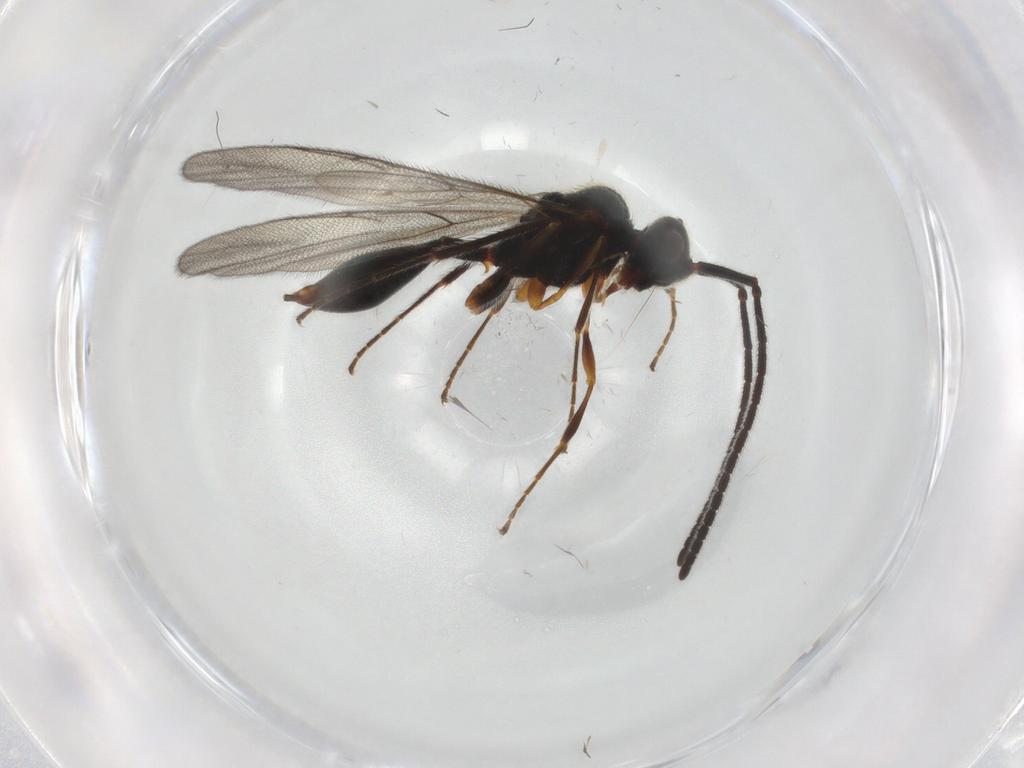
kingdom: Animalia
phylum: Arthropoda
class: Insecta
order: Hymenoptera
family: Diapriidae
